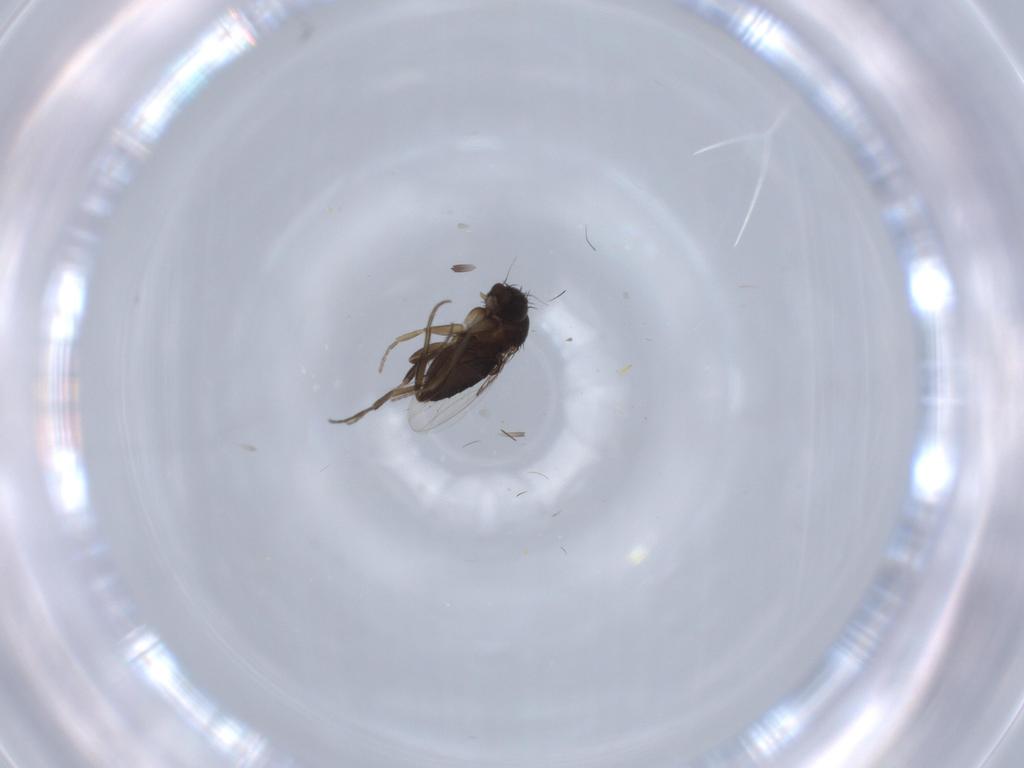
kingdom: Animalia
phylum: Arthropoda
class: Insecta
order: Diptera
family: Phoridae
